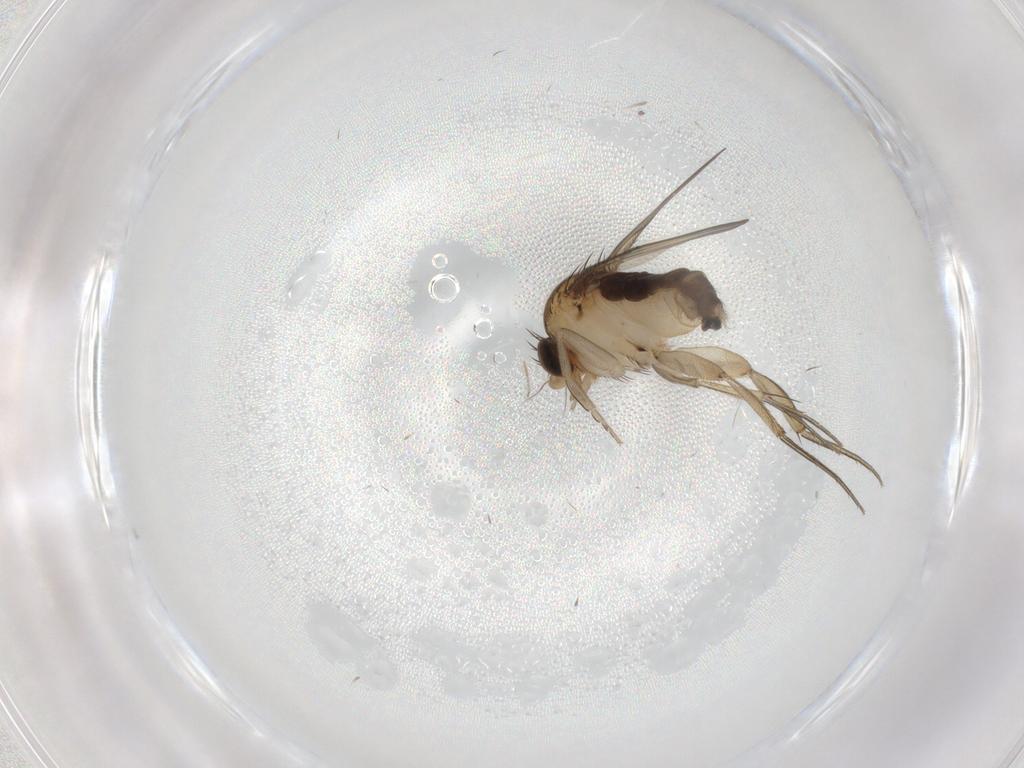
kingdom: Animalia
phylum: Arthropoda
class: Insecta
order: Diptera
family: Phoridae
